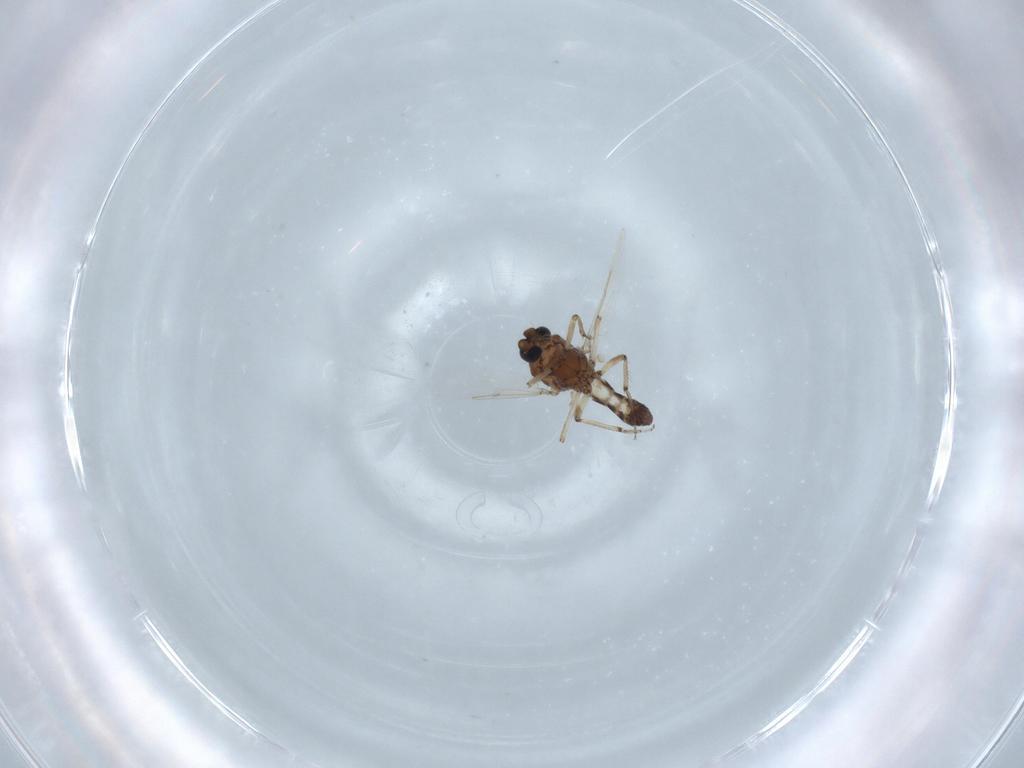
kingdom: Animalia
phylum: Arthropoda
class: Insecta
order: Diptera
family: Ceratopogonidae
